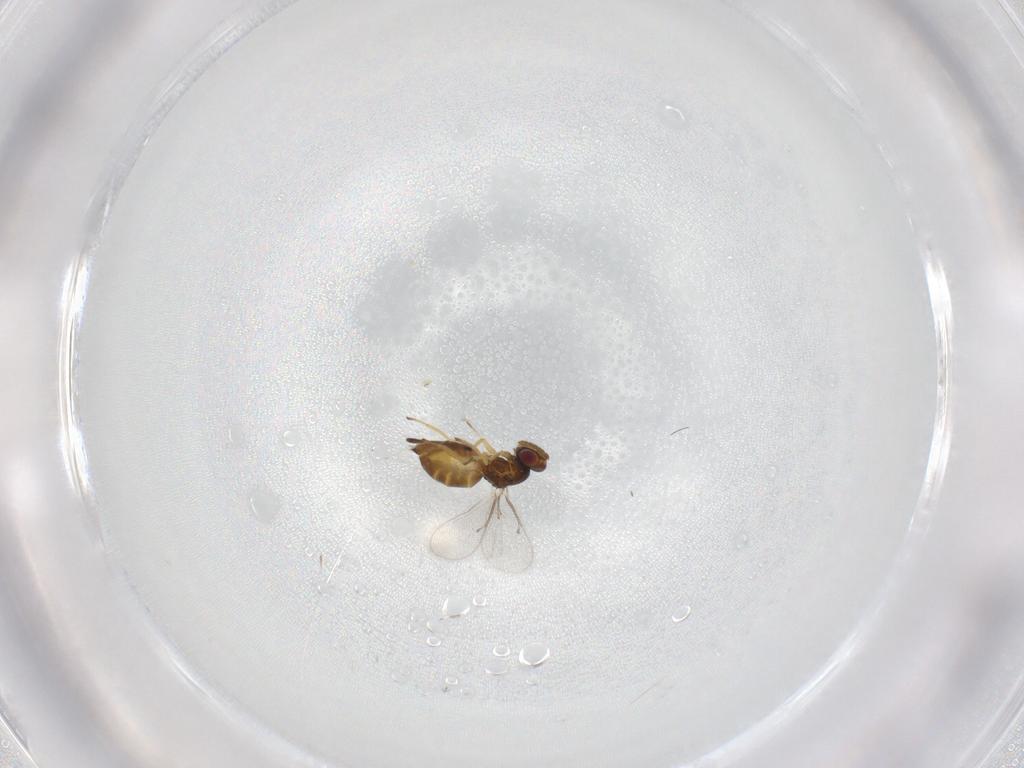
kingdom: Animalia
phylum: Arthropoda
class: Insecta
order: Hymenoptera
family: Eulophidae
